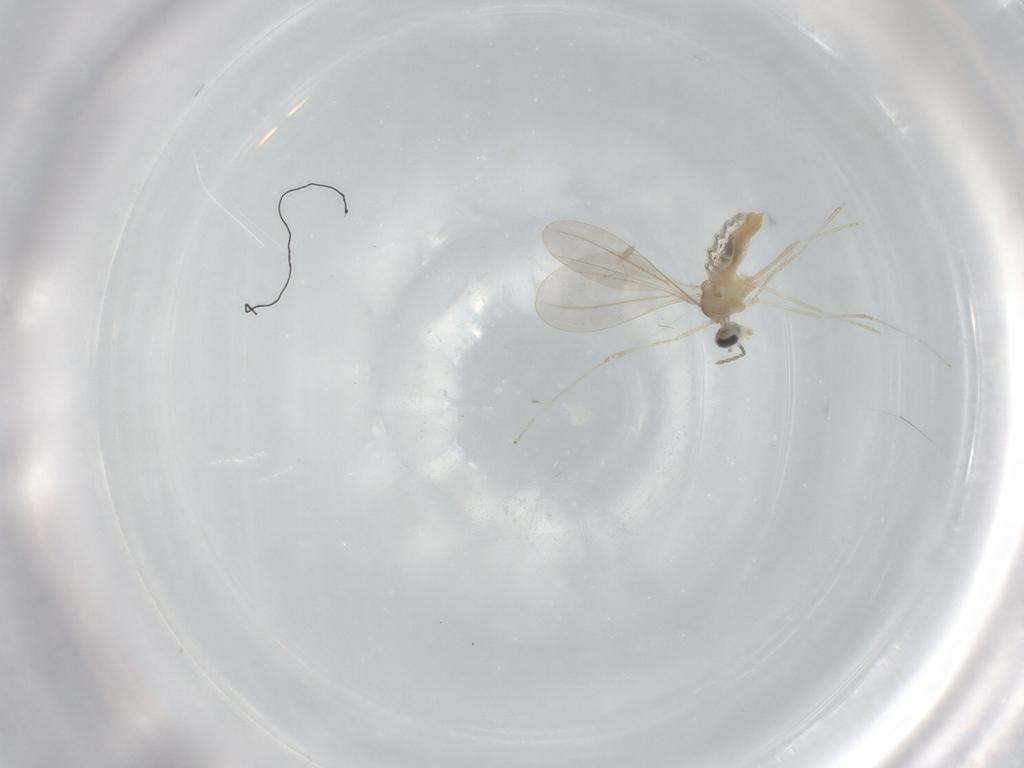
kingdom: Animalia
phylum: Arthropoda
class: Insecta
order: Diptera
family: Cecidomyiidae
